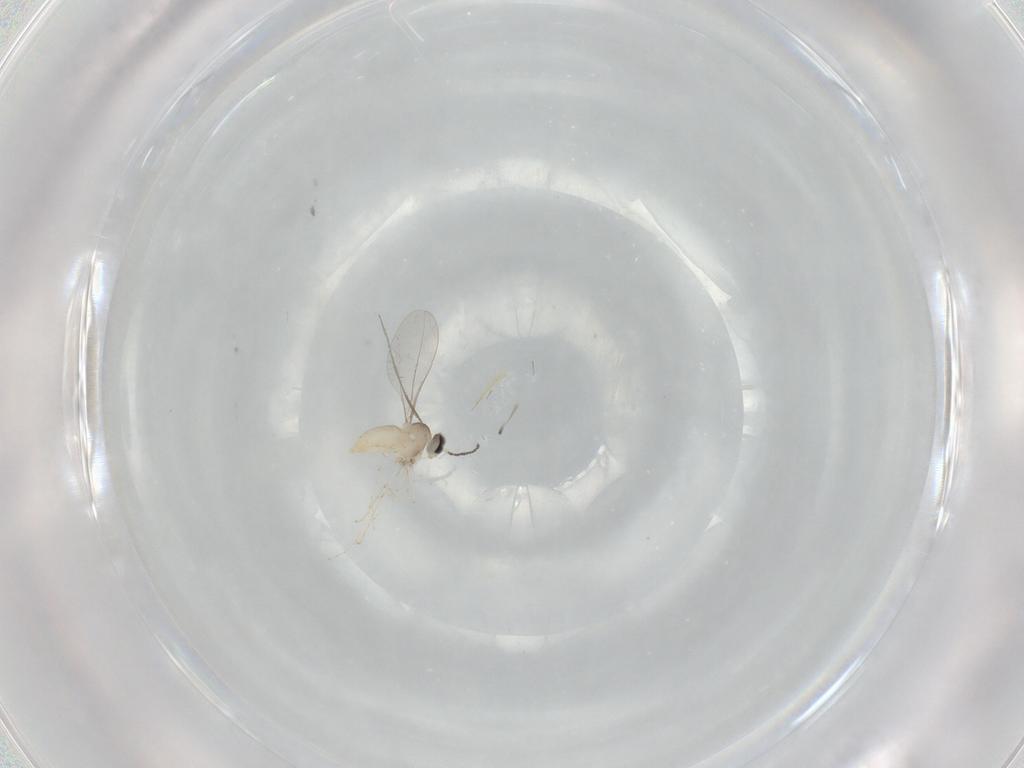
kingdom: Animalia
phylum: Arthropoda
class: Insecta
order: Diptera
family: Cecidomyiidae
